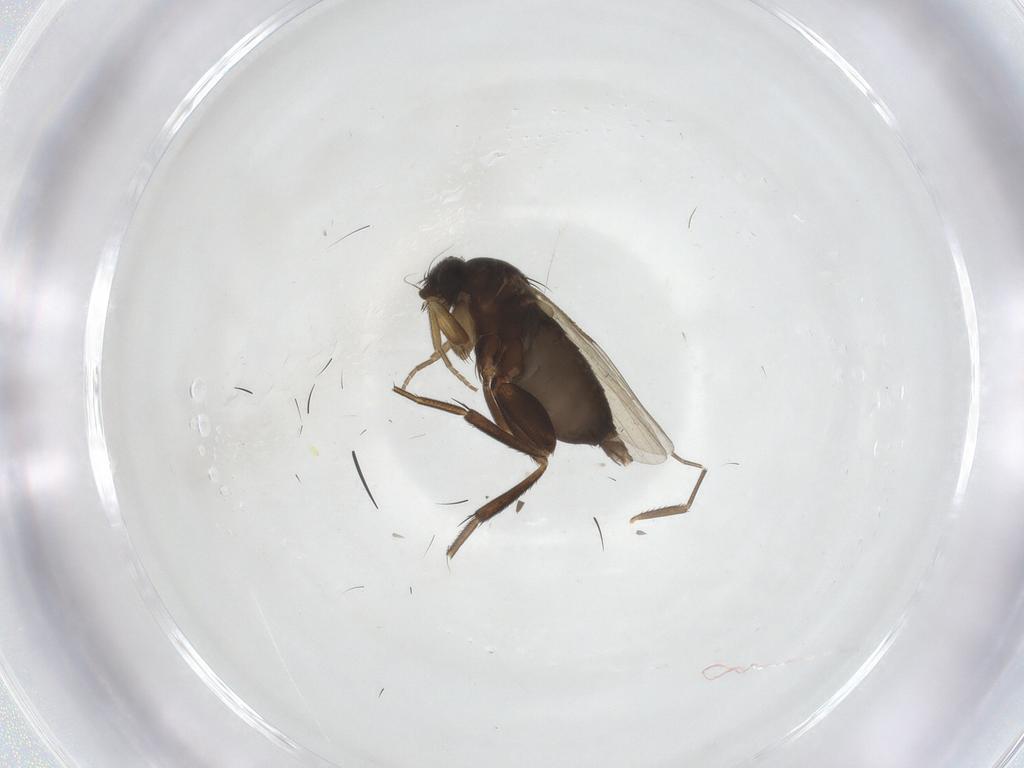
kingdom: Animalia
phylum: Arthropoda
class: Insecta
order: Diptera
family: Phoridae
